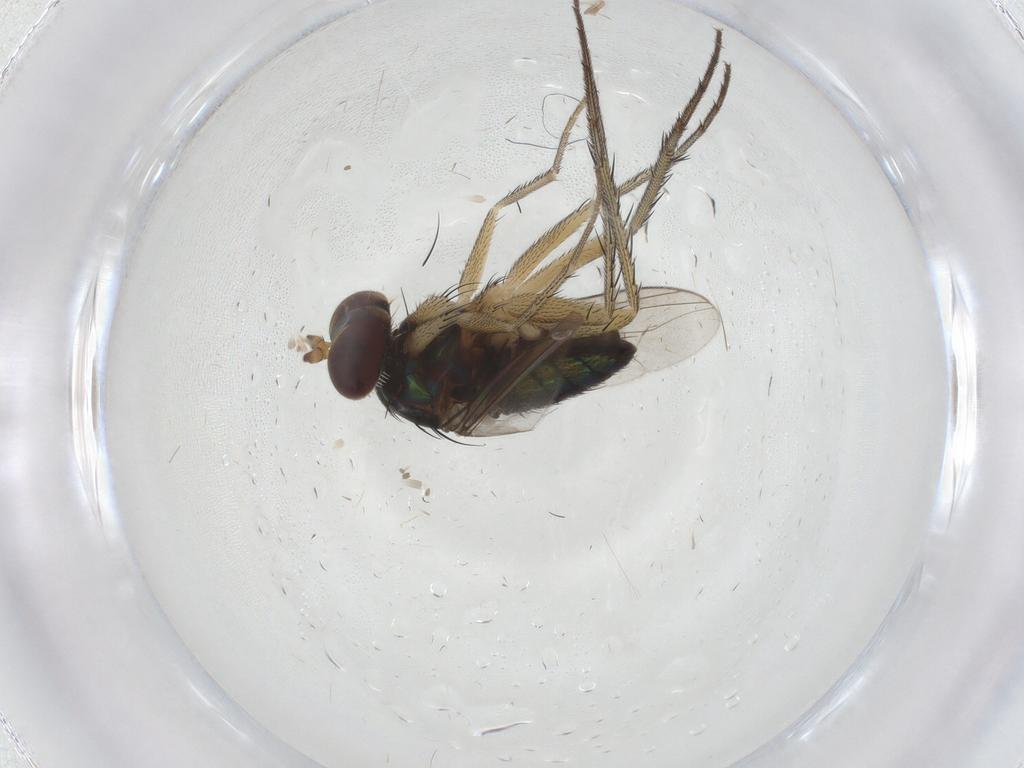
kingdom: Animalia
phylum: Arthropoda
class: Insecta
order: Diptera
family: Dolichopodidae
